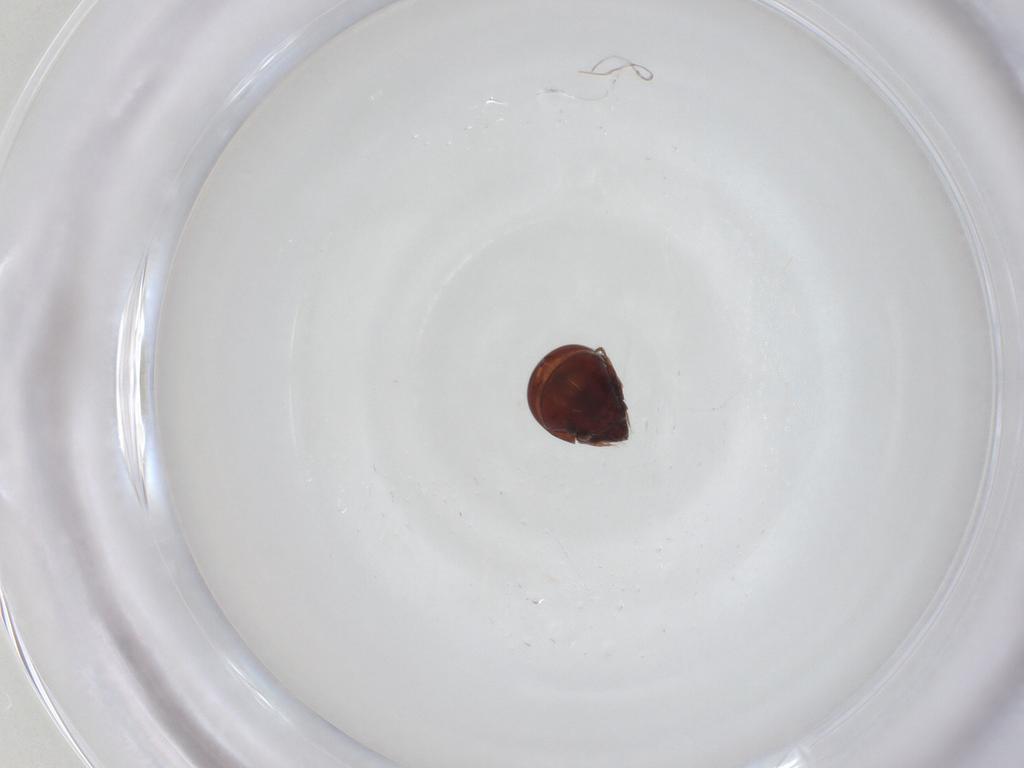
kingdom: Animalia
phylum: Arthropoda
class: Arachnida
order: Sarcoptiformes
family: Mochlozetidae
